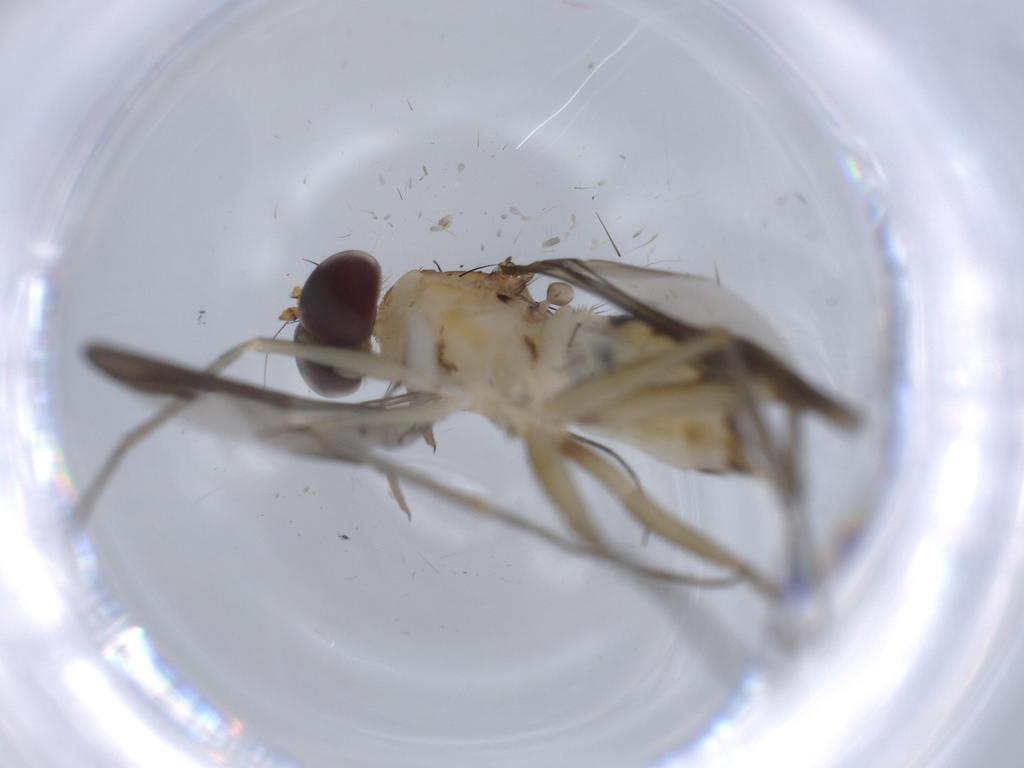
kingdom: Animalia
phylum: Arthropoda
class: Insecta
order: Diptera
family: Dolichopodidae
